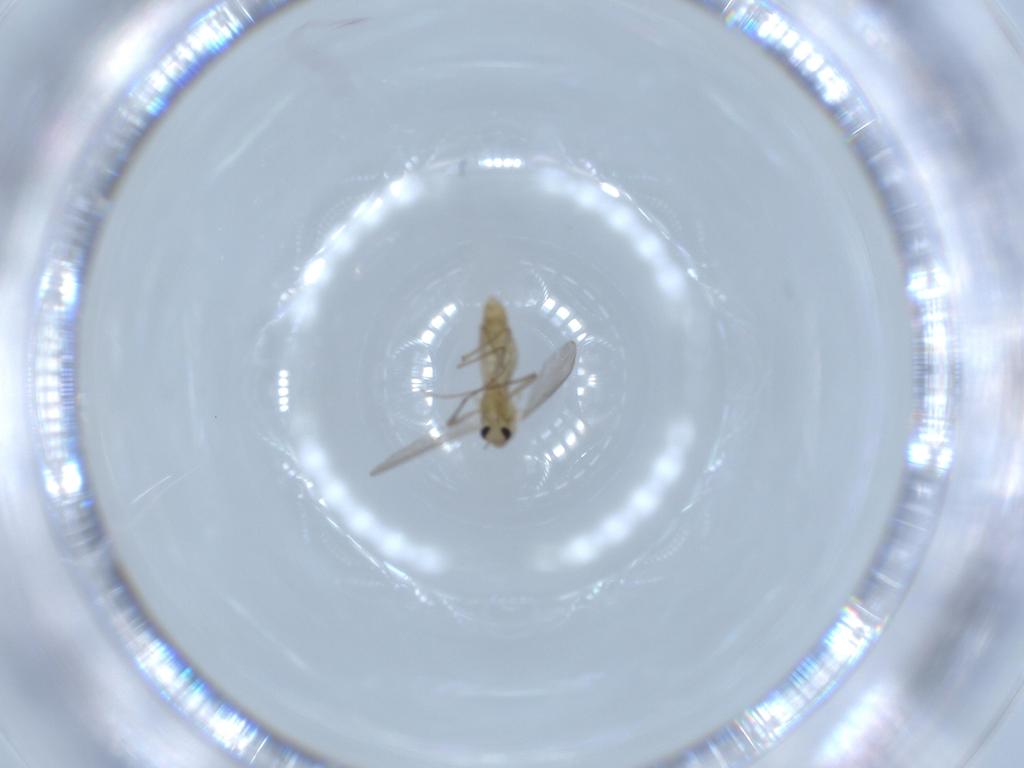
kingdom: Animalia
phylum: Arthropoda
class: Insecta
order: Diptera
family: Chironomidae
